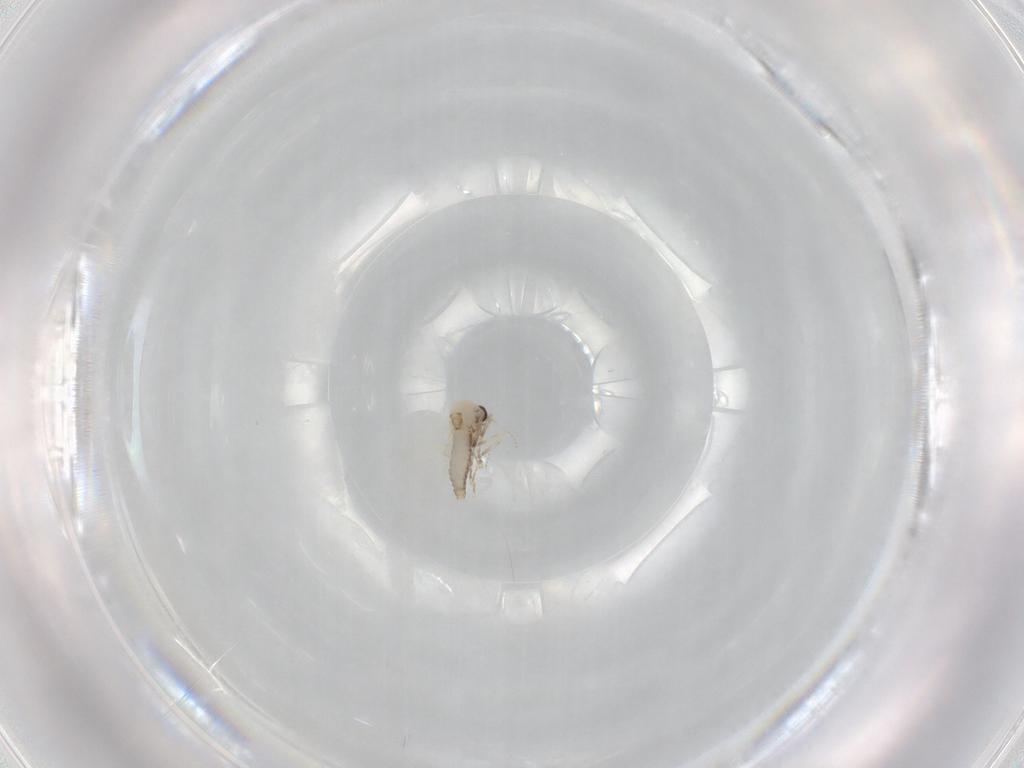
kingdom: Animalia
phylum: Arthropoda
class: Insecta
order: Diptera
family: Ceratopogonidae
